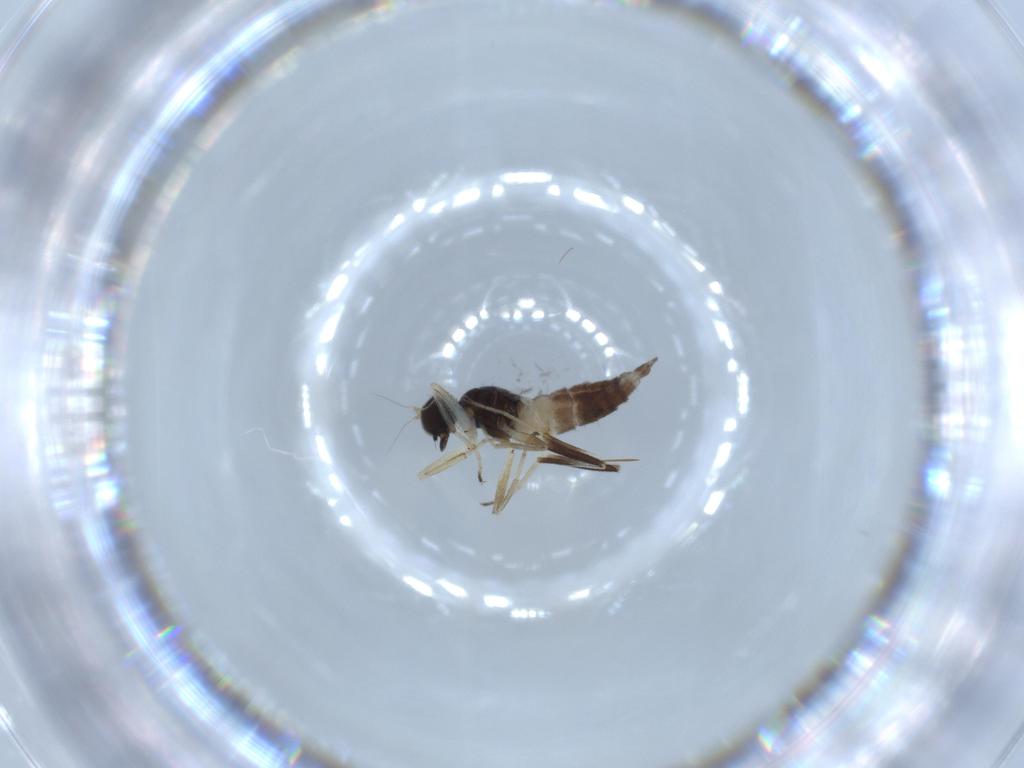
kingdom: Animalia
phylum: Arthropoda
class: Insecta
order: Diptera
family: Hybotidae
